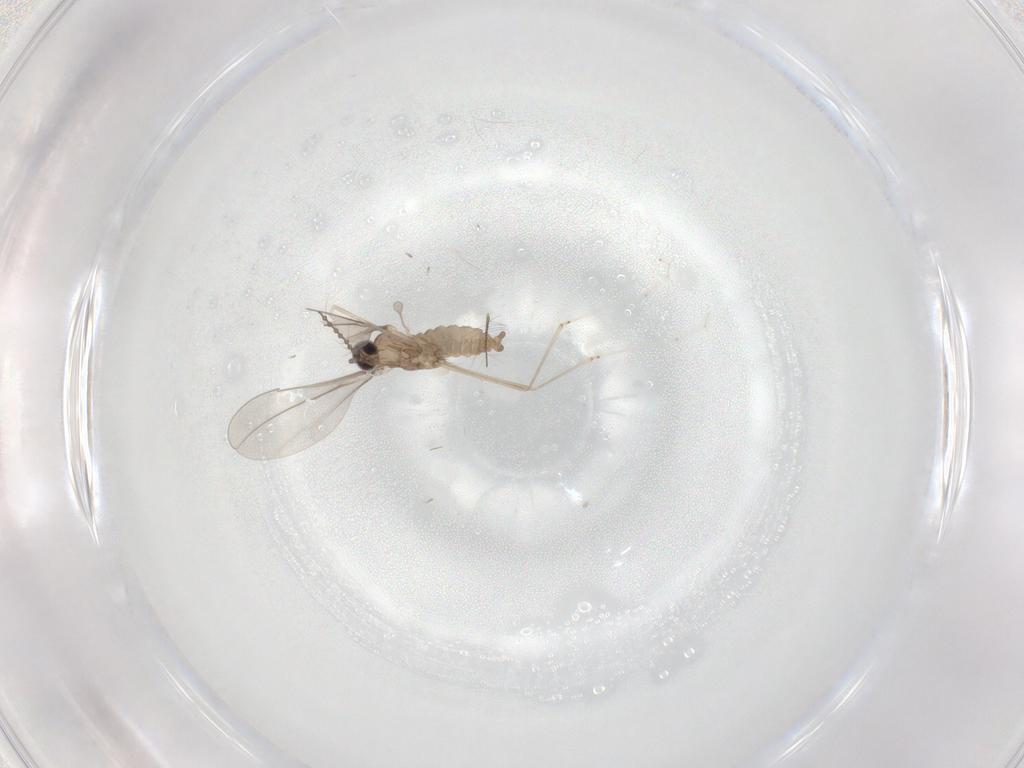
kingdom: Animalia
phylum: Arthropoda
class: Insecta
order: Diptera
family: Chironomidae
